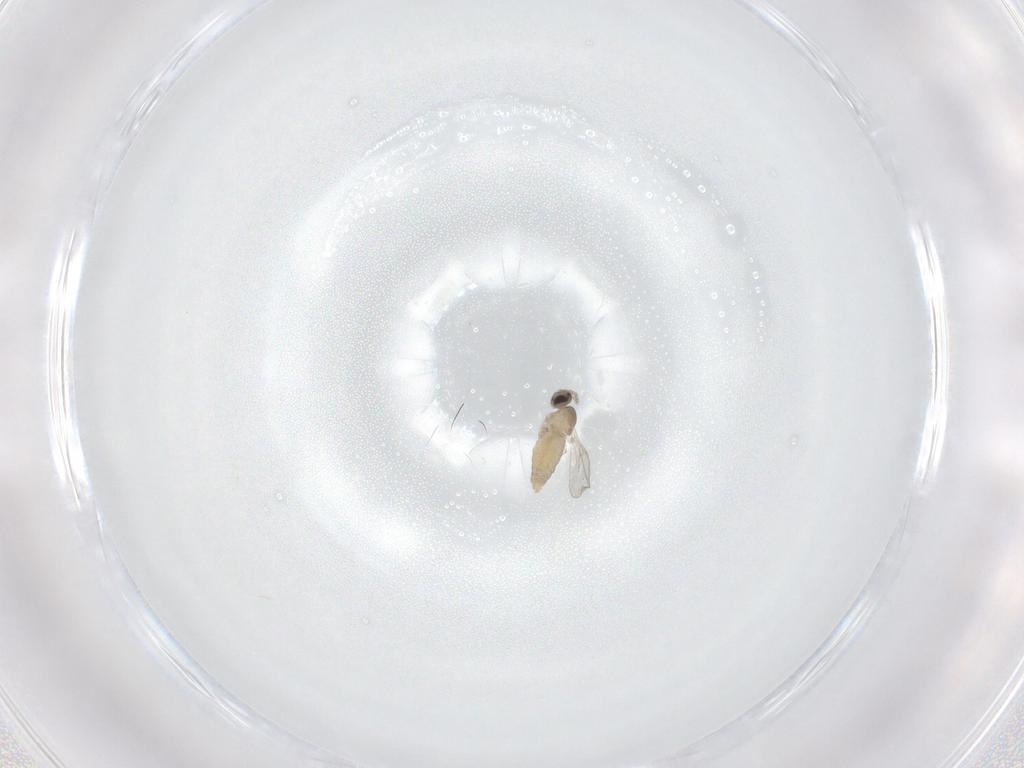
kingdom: Animalia
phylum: Arthropoda
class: Insecta
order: Diptera
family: Cecidomyiidae
